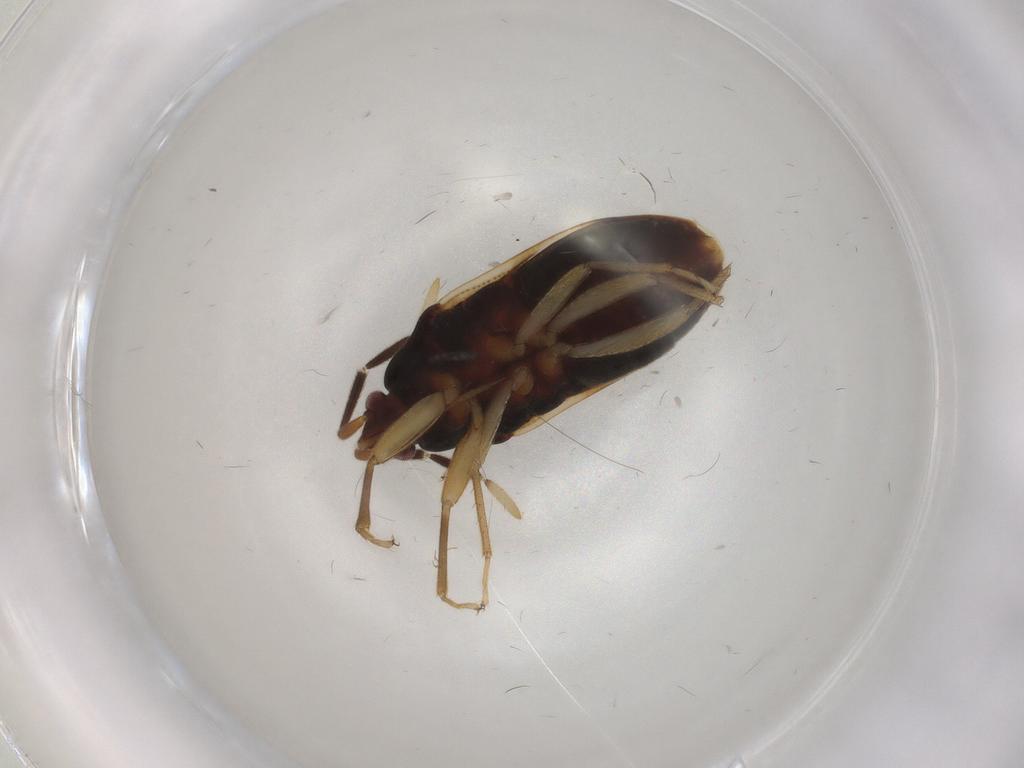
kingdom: Animalia
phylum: Arthropoda
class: Insecta
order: Hemiptera
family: Rhyparochromidae
